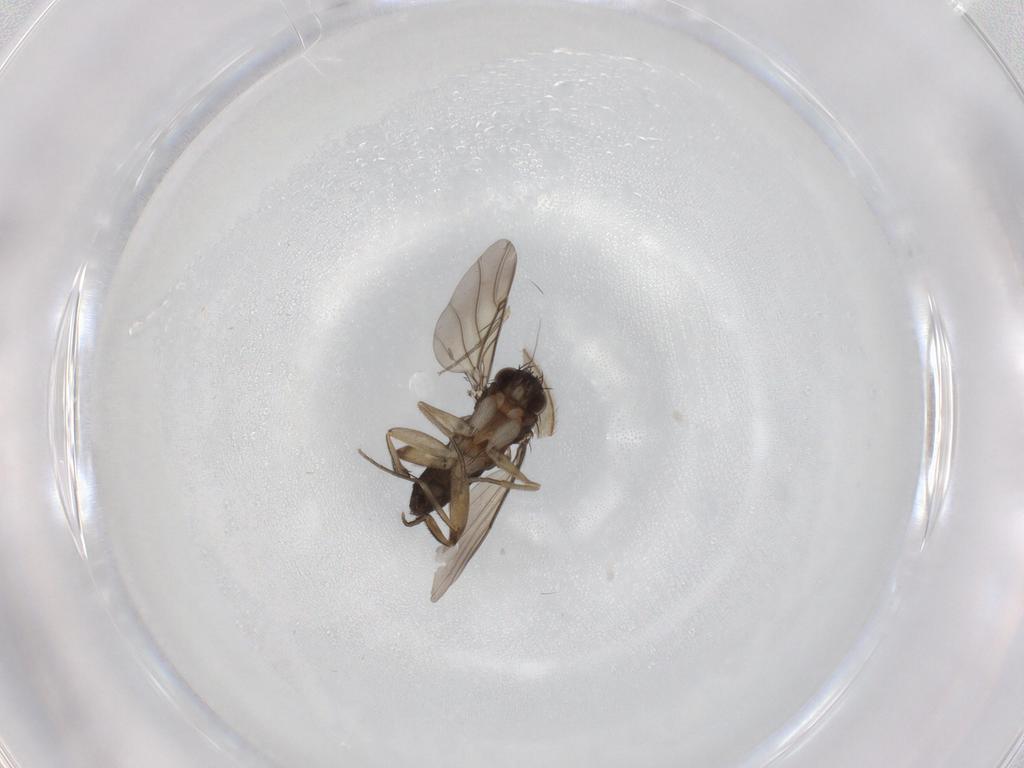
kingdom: Animalia
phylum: Arthropoda
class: Insecta
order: Diptera
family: Phoridae
